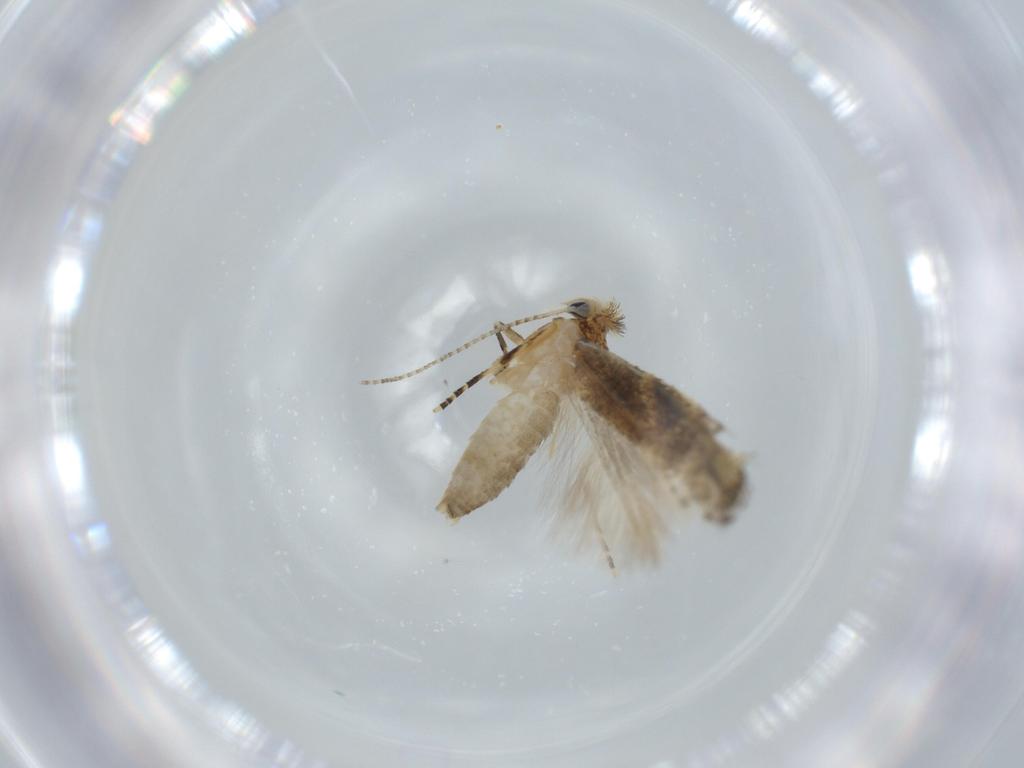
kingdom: Animalia
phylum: Arthropoda
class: Insecta
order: Lepidoptera
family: Bucculatricidae
